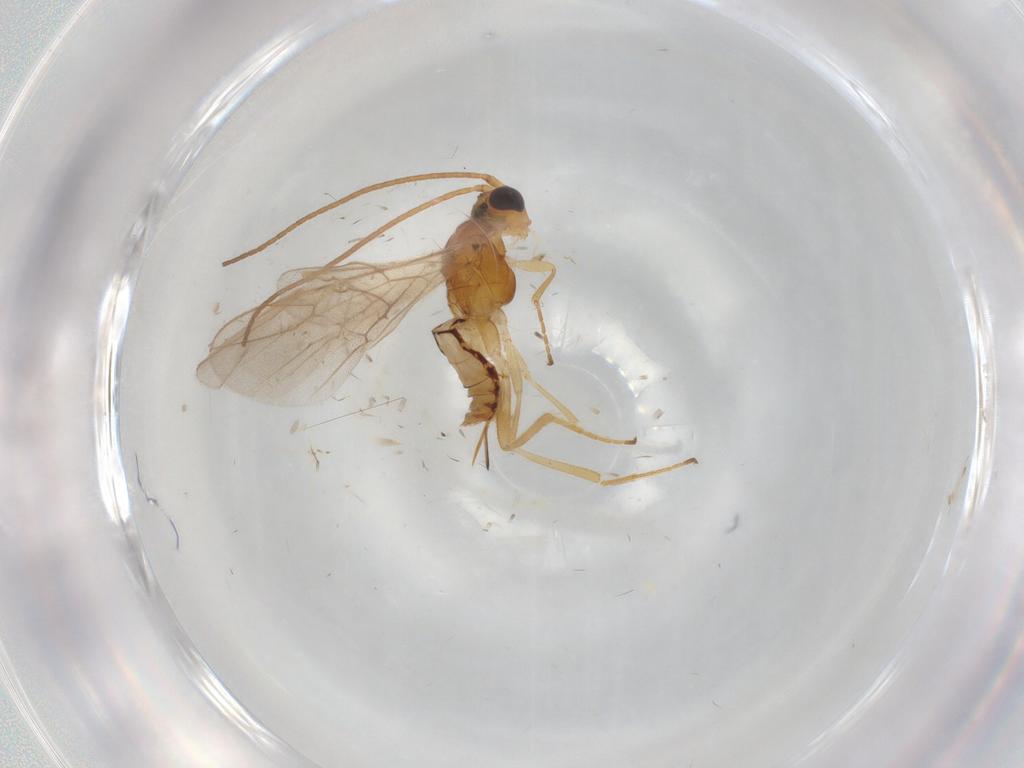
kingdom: Animalia
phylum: Arthropoda
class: Insecta
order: Hymenoptera
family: Braconidae
